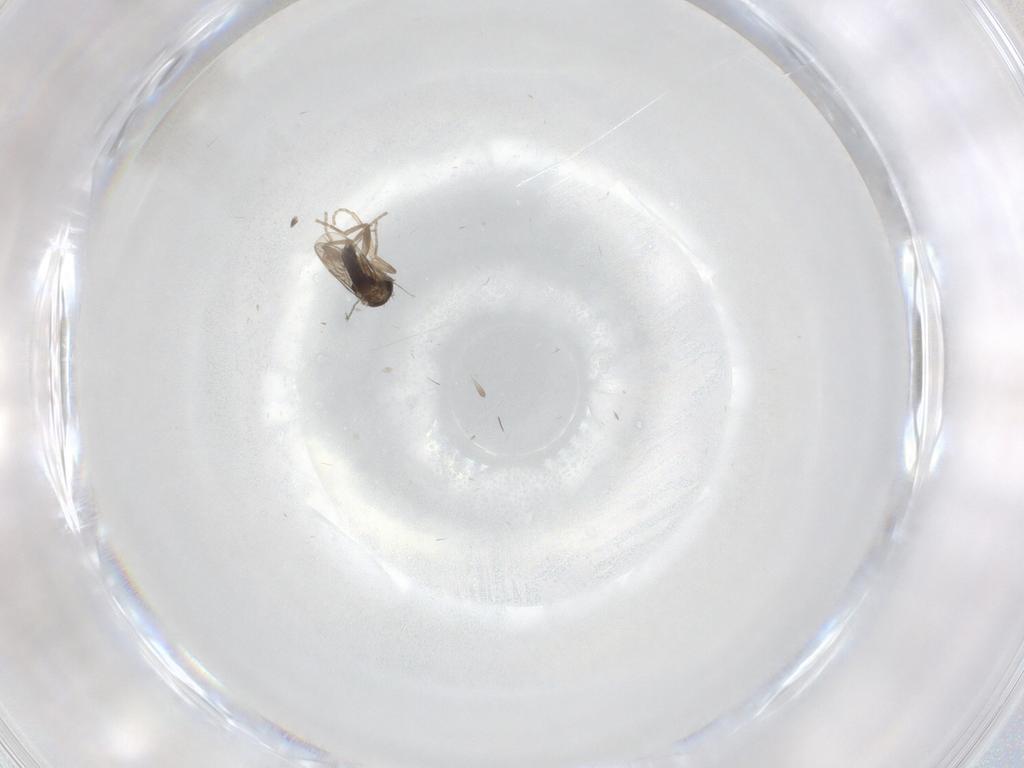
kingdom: Animalia
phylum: Arthropoda
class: Insecta
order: Diptera
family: Psychodidae
